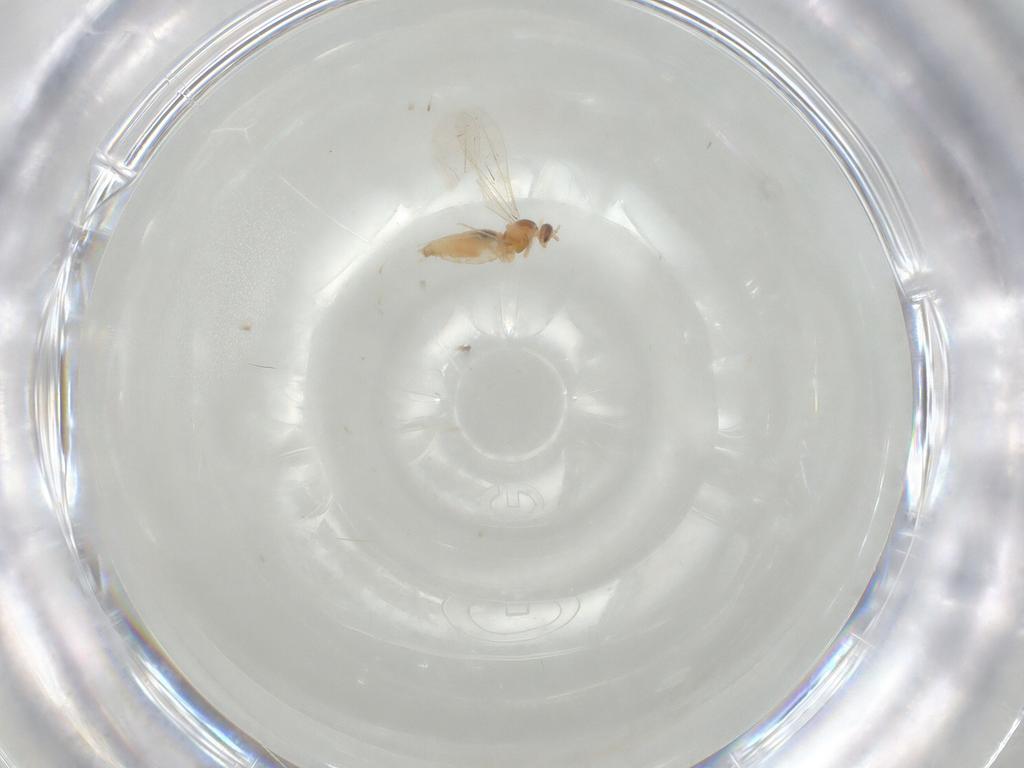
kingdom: Animalia
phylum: Arthropoda
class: Insecta
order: Diptera
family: Cecidomyiidae
